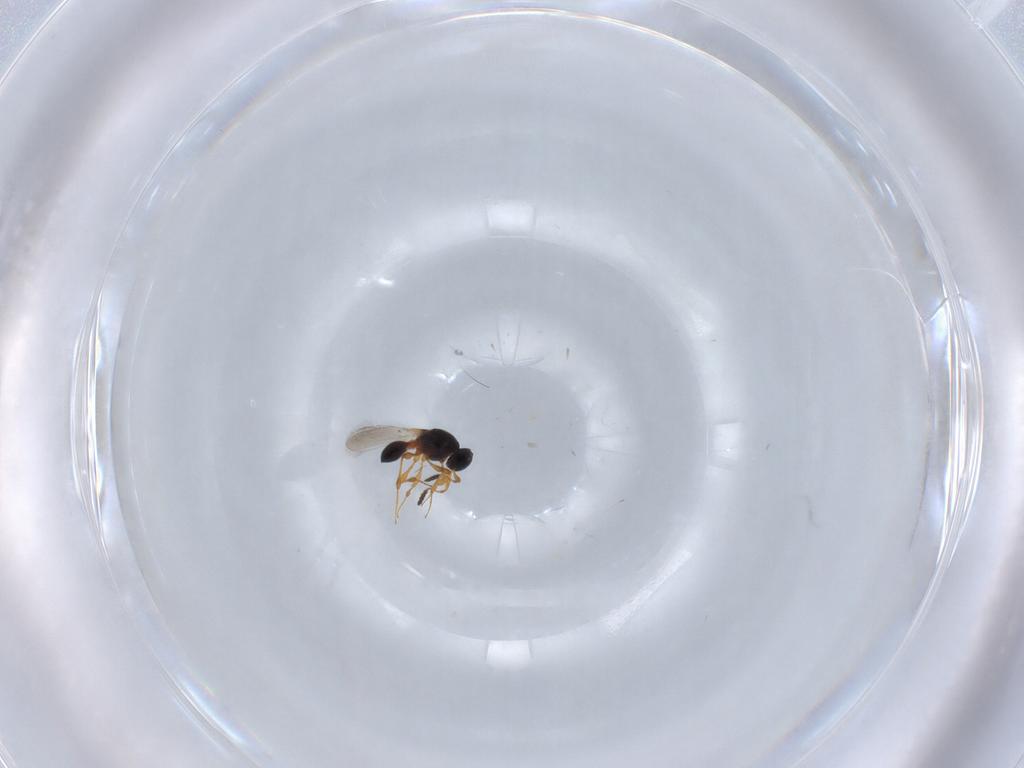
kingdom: Animalia
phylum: Arthropoda
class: Insecta
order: Hymenoptera
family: Platygastridae
